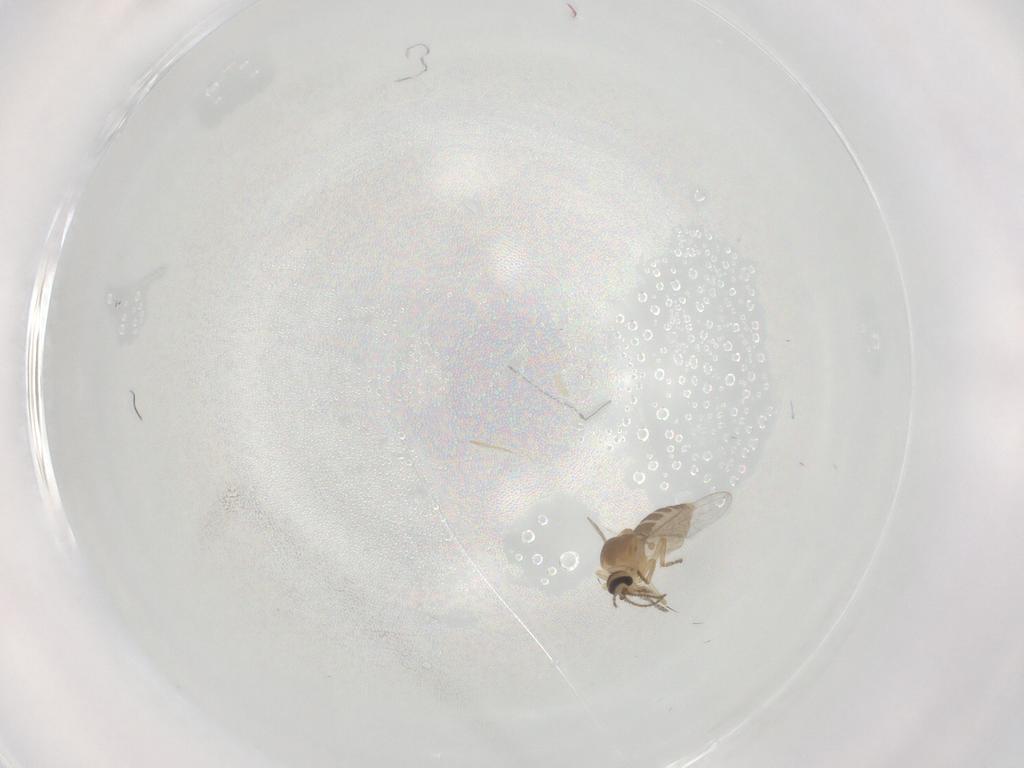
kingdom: Animalia
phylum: Arthropoda
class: Insecta
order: Diptera
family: Ceratopogonidae
